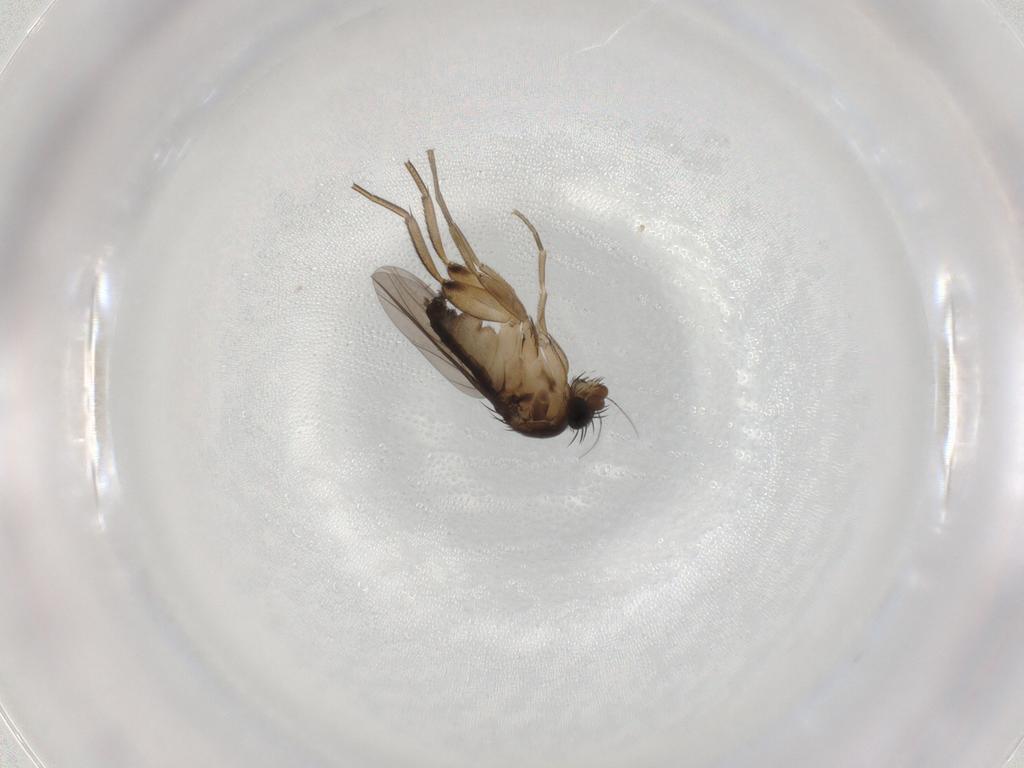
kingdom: Animalia
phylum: Arthropoda
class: Insecta
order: Diptera
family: Phoridae
